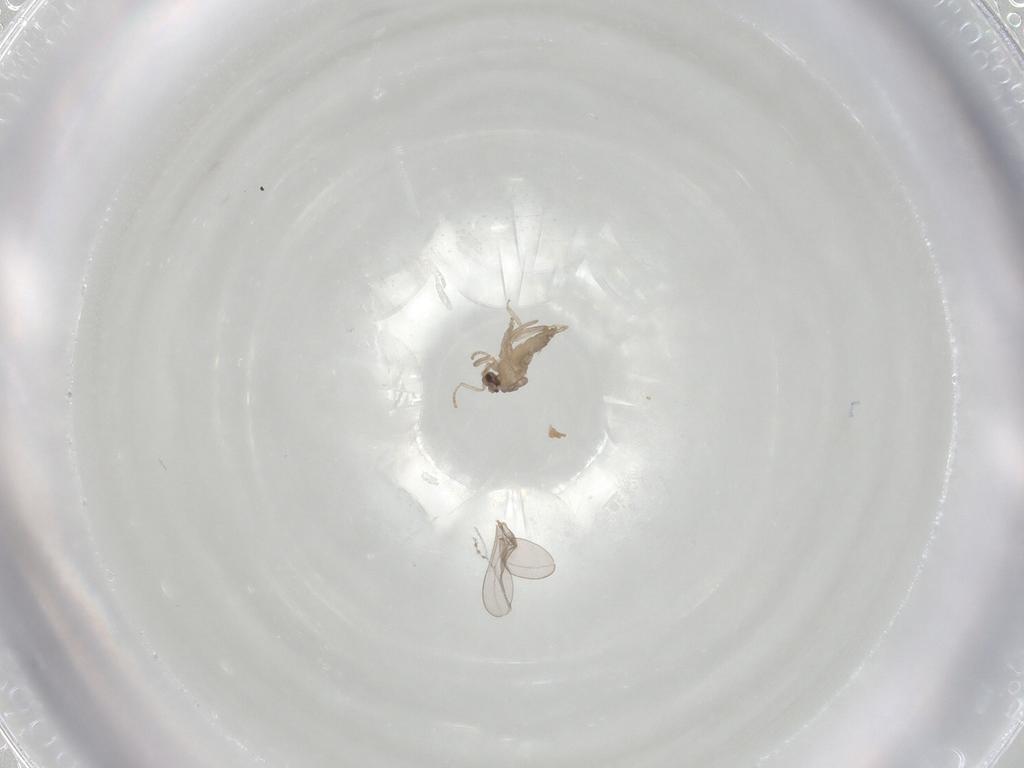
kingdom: Animalia
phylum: Arthropoda
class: Insecta
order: Diptera
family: Cecidomyiidae
